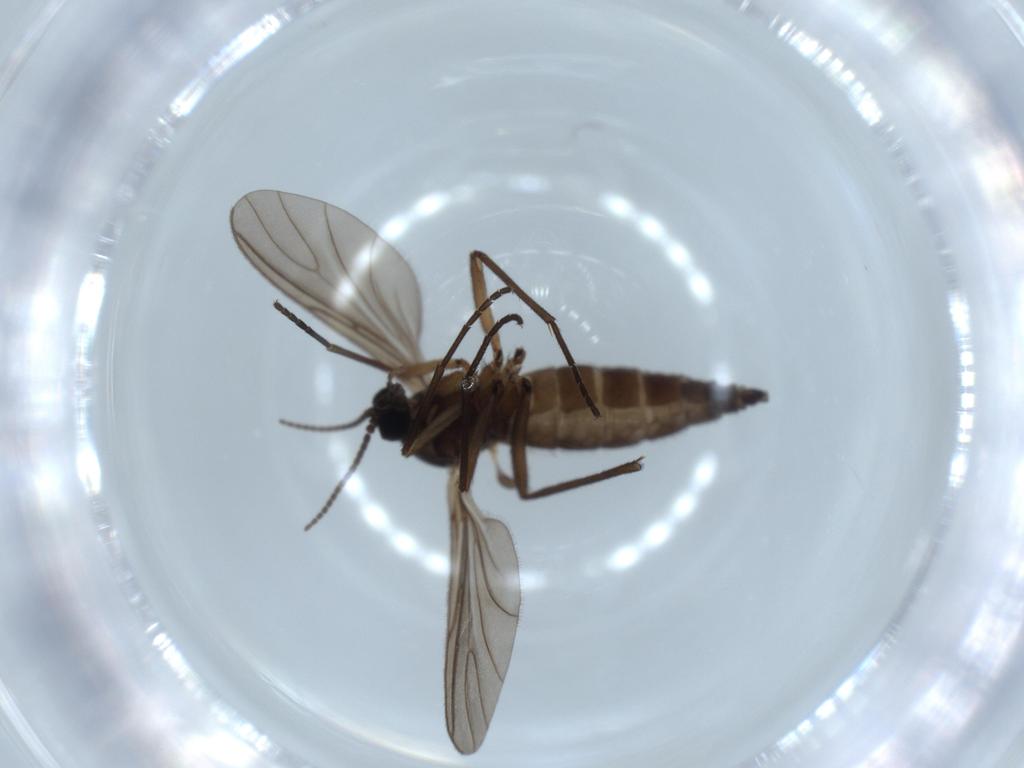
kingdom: Animalia
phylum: Arthropoda
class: Insecta
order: Diptera
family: Sciaridae
